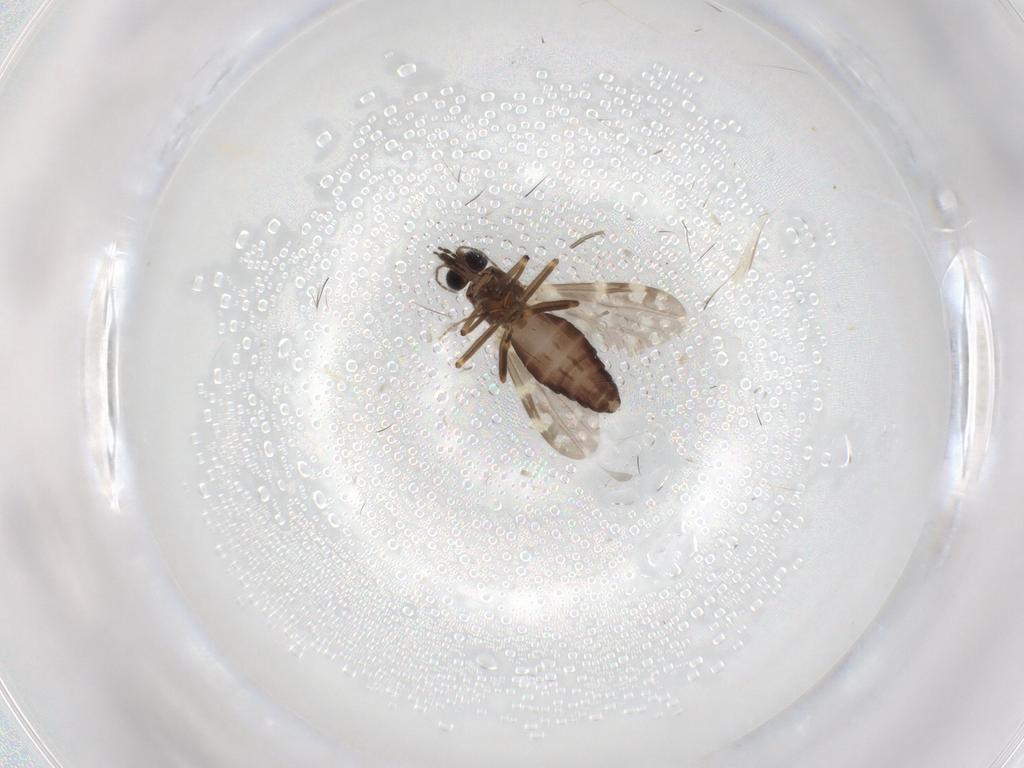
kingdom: Animalia
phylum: Arthropoda
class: Insecta
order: Diptera
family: Ceratopogonidae
